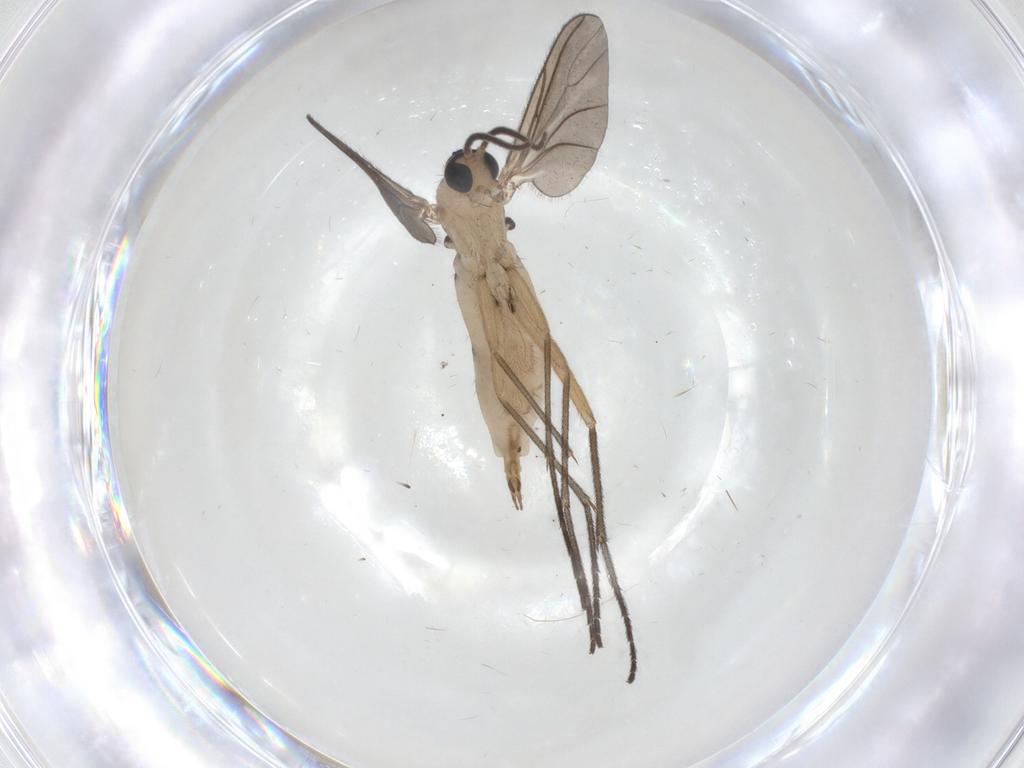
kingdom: Animalia
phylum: Arthropoda
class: Insecta
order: Diptera
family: Sciaridae
